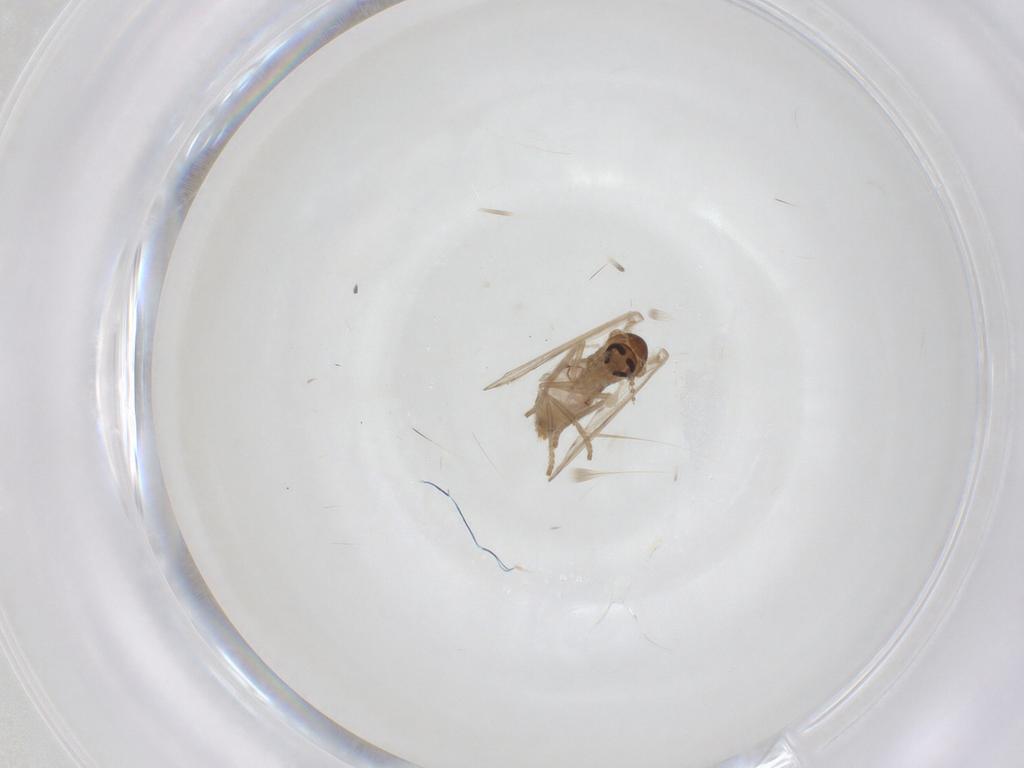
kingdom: Animalia
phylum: Arthropoda
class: Insecta
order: Diptera
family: Psychodidae
